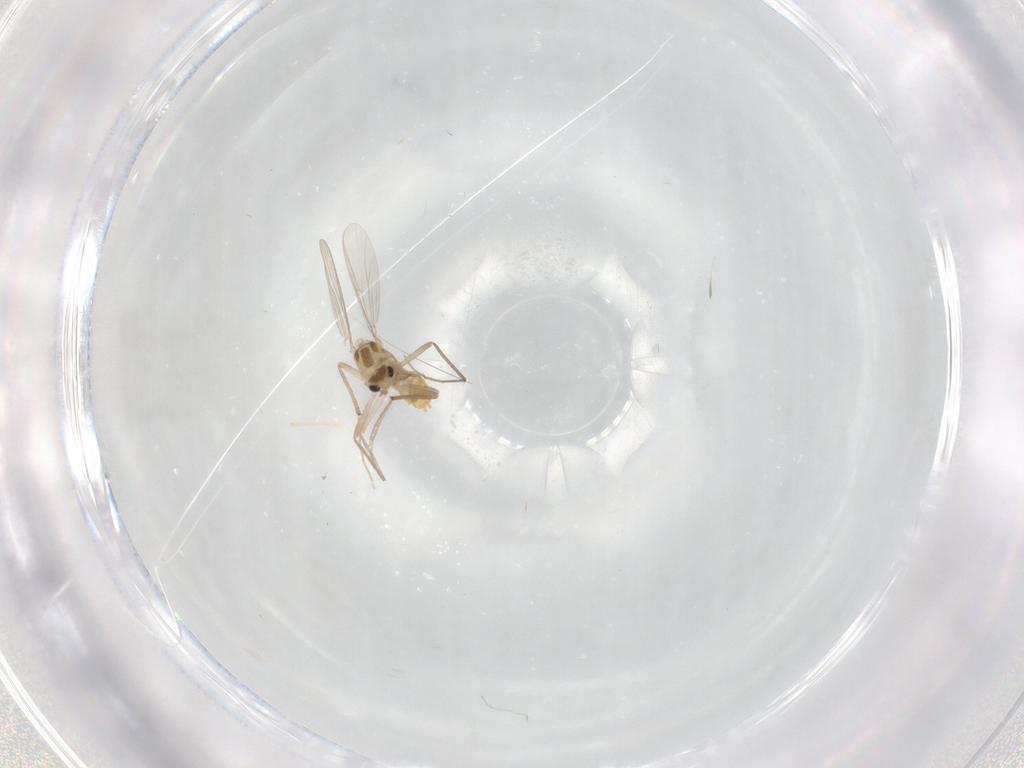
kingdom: Animalia
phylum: Arthropoda
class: Insecta
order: Diptera
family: Chironomidae
